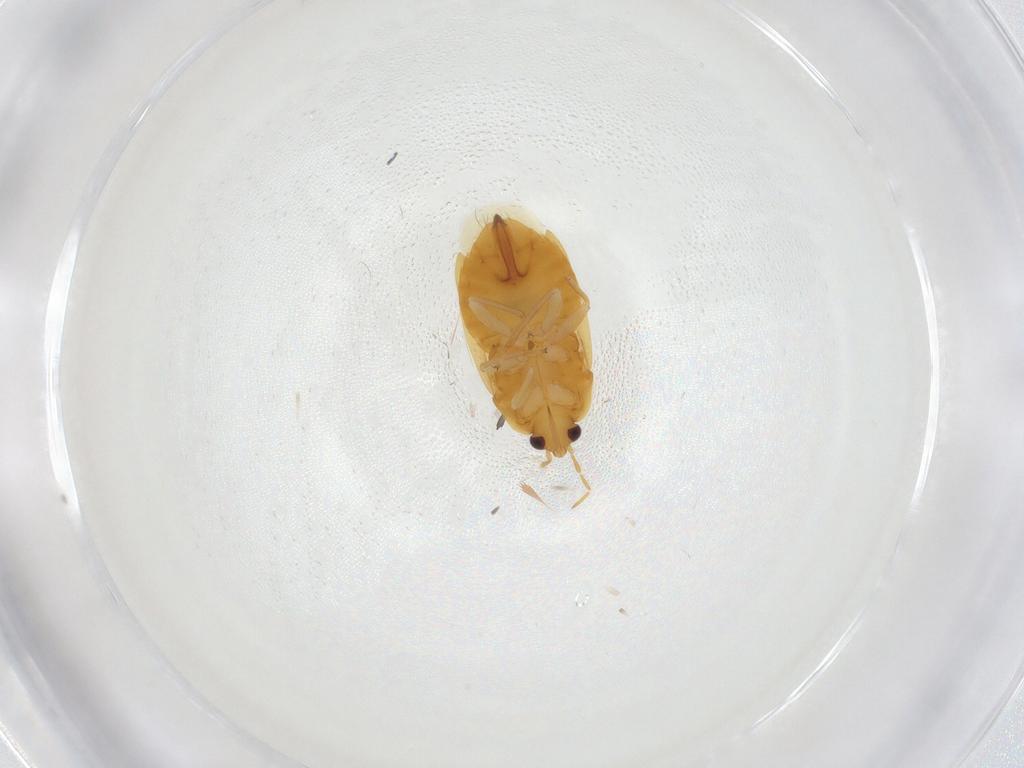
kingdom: Animalia
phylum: Arthropoda
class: Insecta
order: Hemiptera
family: Anthocoridae
